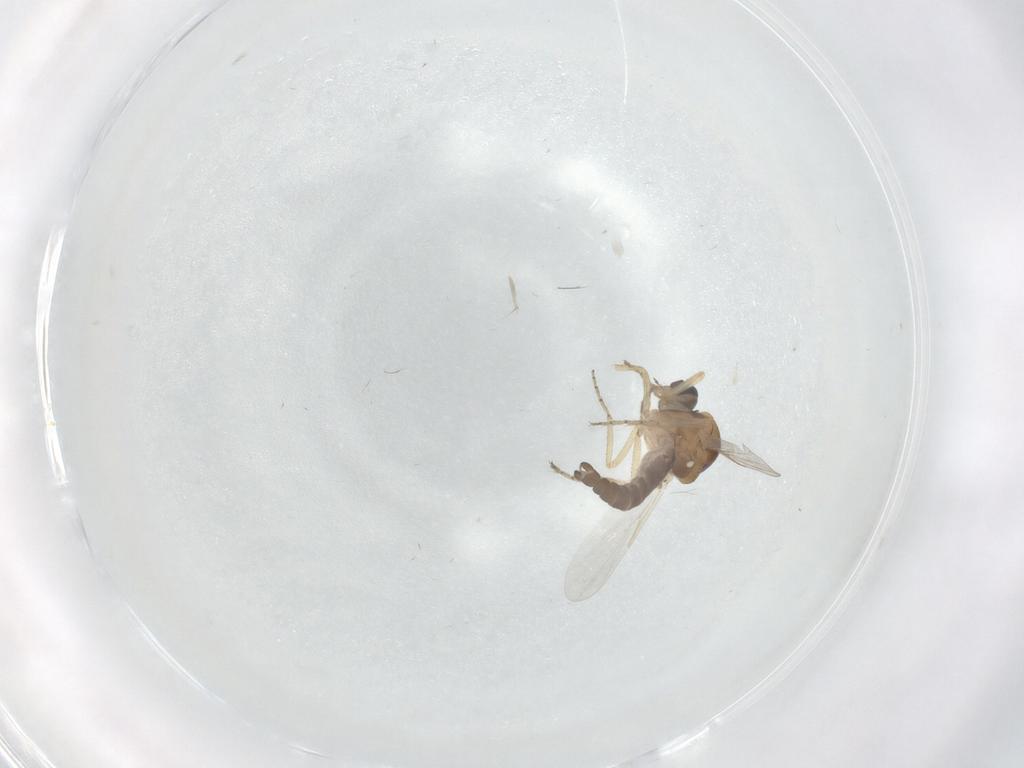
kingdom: Animalia
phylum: Arthropoda
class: Insecta
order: Diptera
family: Ceratopogonidae
